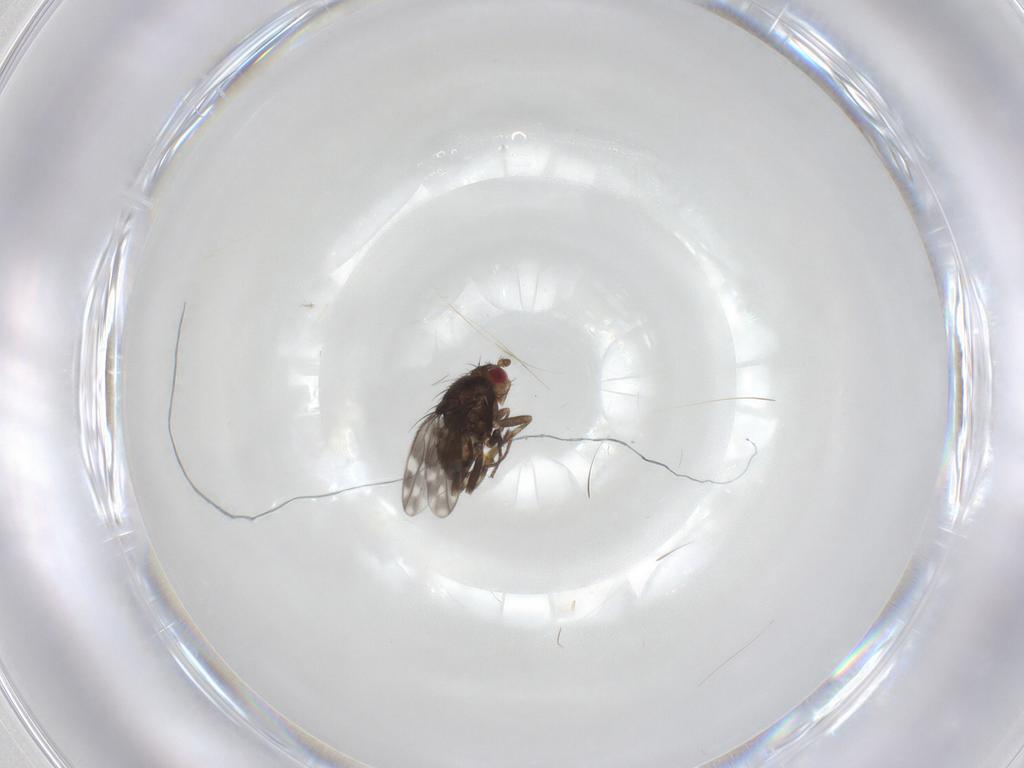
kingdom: Animalia
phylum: Arthropoda
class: Insecta
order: Diptera
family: Sphaeroceridae
